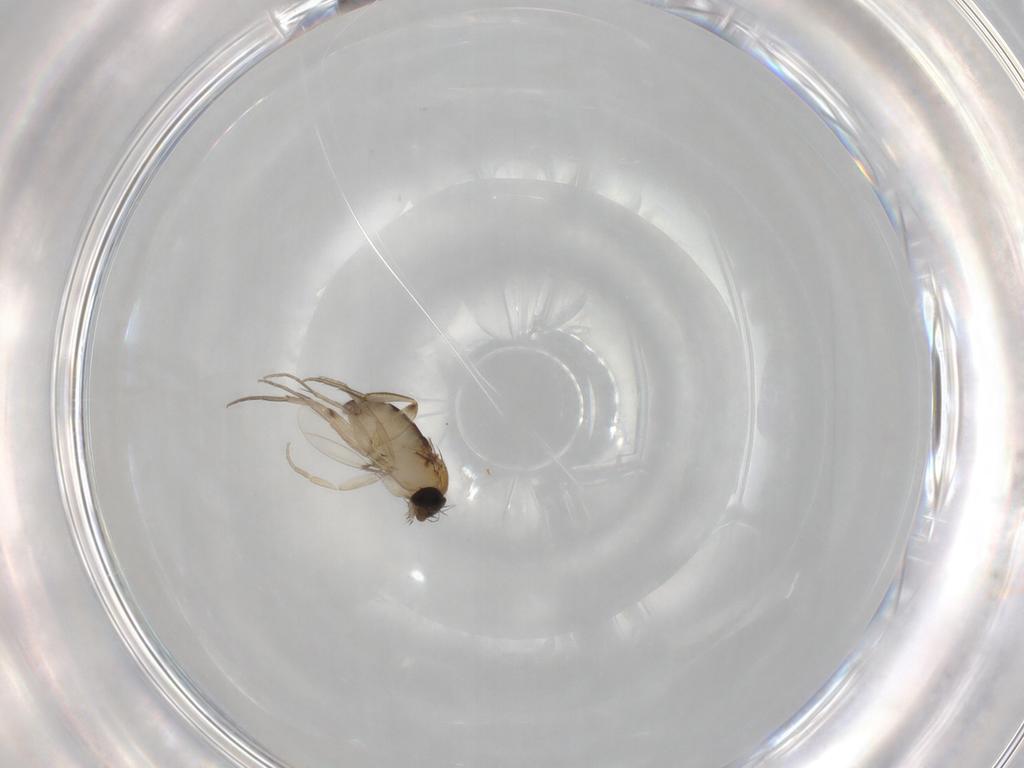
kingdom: Animalia
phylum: Arthropoda
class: Insecta
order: Diptera
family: Phoridae
